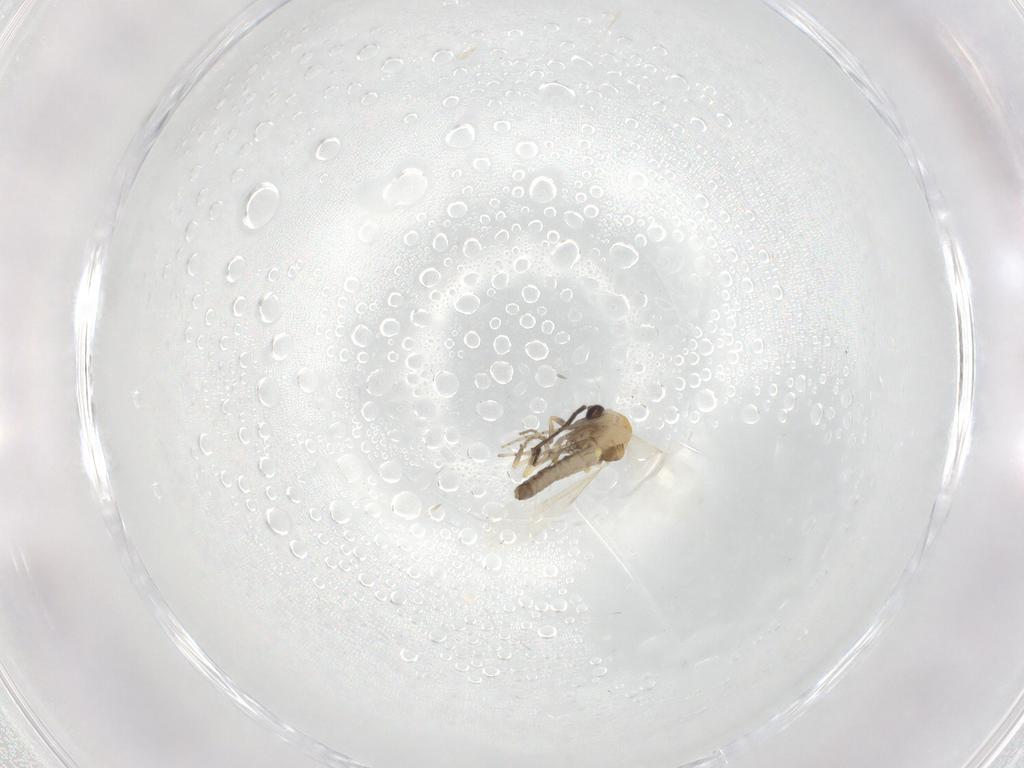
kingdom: Animalia
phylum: Arthropoda
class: Insecta
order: Diptera
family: Ceratopogonidae
